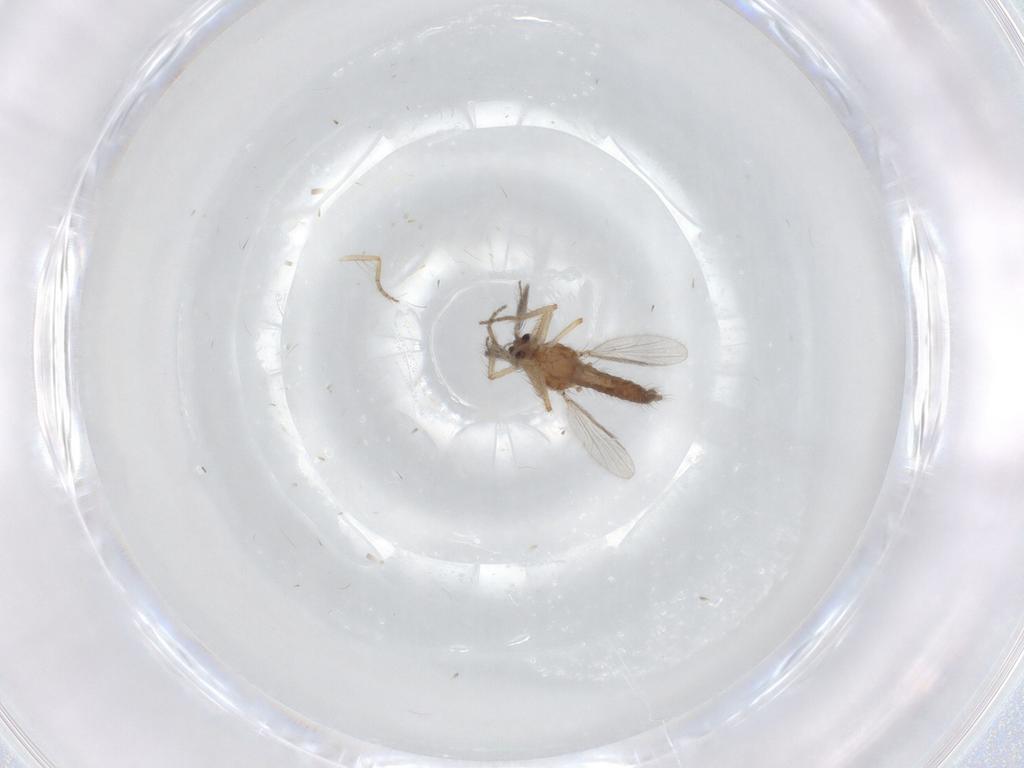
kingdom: Animalia
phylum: Arthropoda
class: Insecta
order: Diptera
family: Ceratopogonidae
